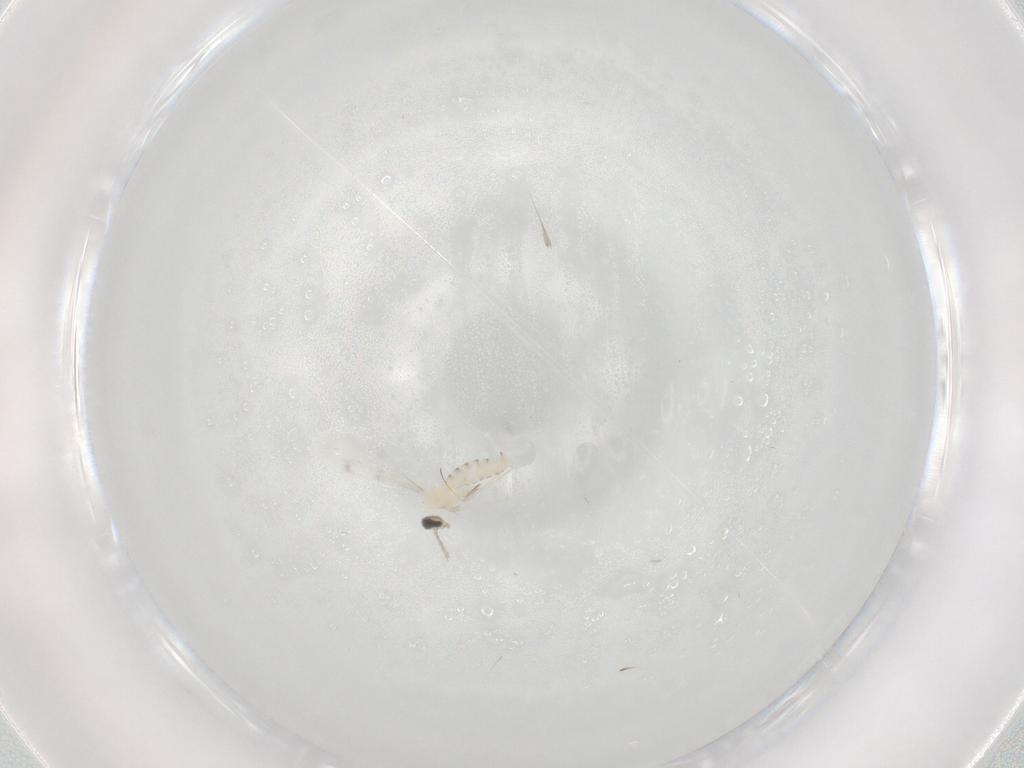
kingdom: Animalia
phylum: Arthropoda
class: Insecta
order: Diptera
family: Cecidomyiidae
